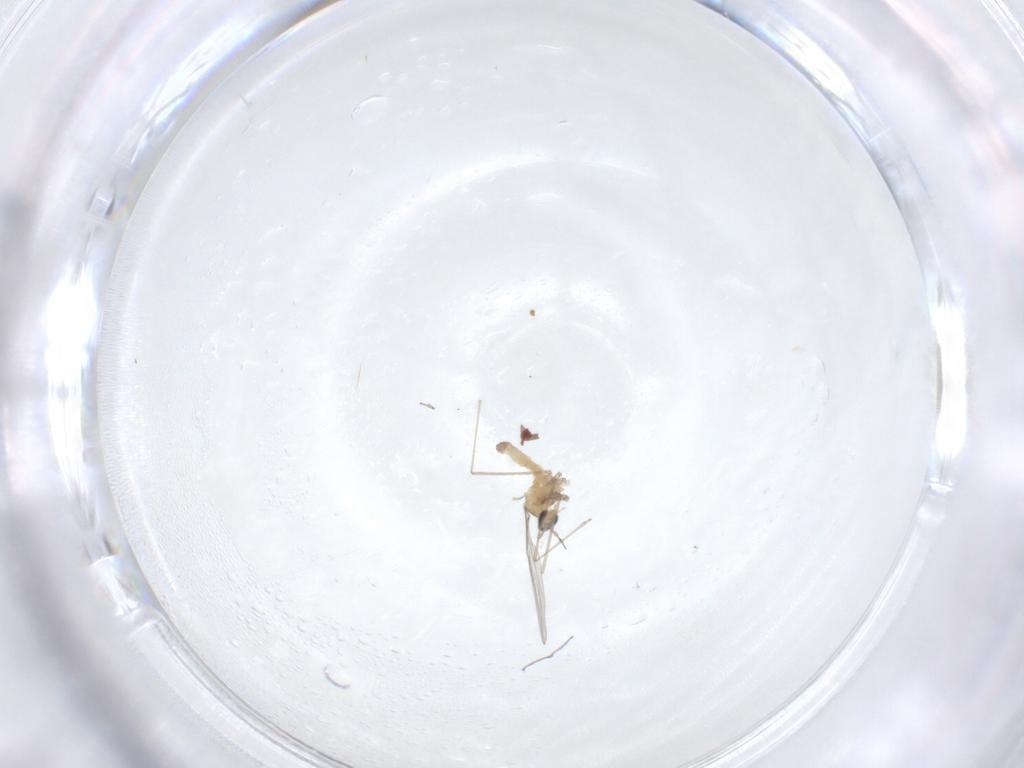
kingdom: Animalia
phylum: Arthropoda
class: Insecta
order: Diptera
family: Cecidomyiidae
